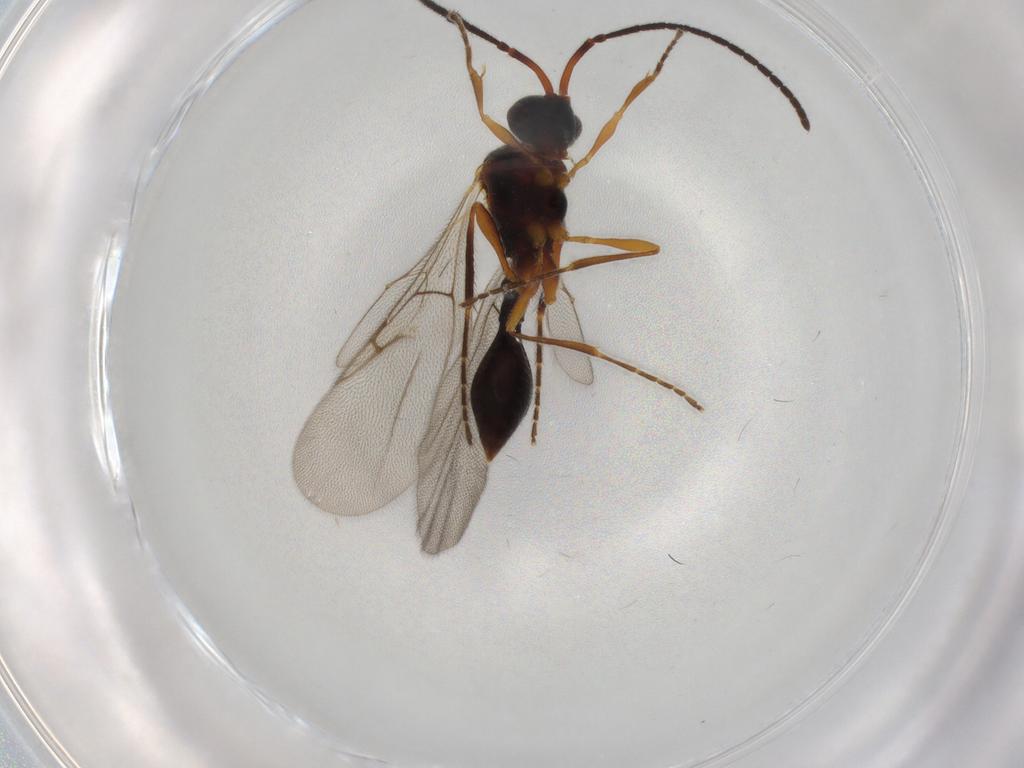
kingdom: Animalia
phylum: Arthropoda
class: Insecta
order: Hymenoptera
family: Diapriidae
